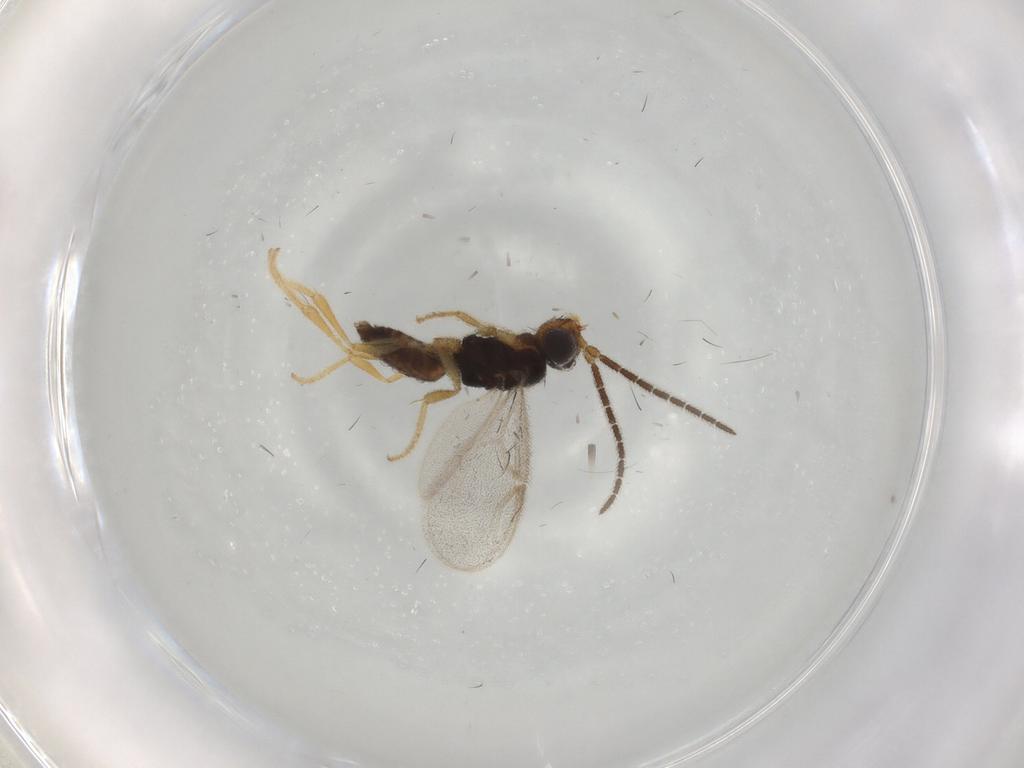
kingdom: Animalia
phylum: Arthropoda
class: Insecta
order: Hymenoptera
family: Dryinidae
